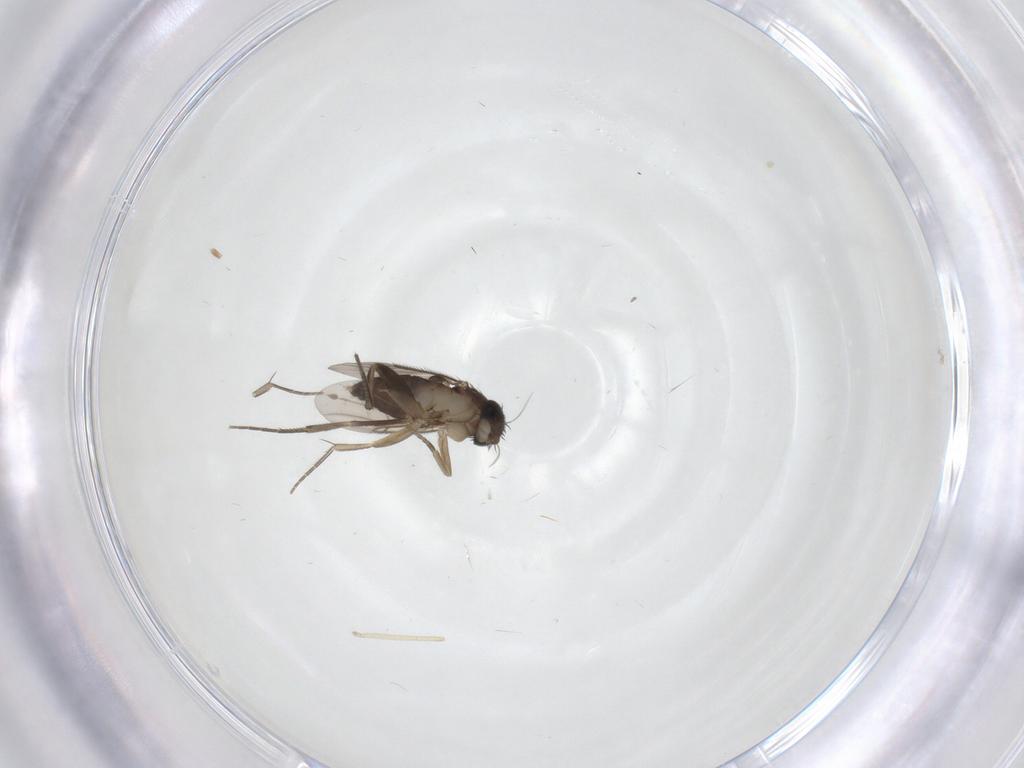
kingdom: Animalia
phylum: Arthropoda
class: Insecta
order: Diptera
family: Phoridae
